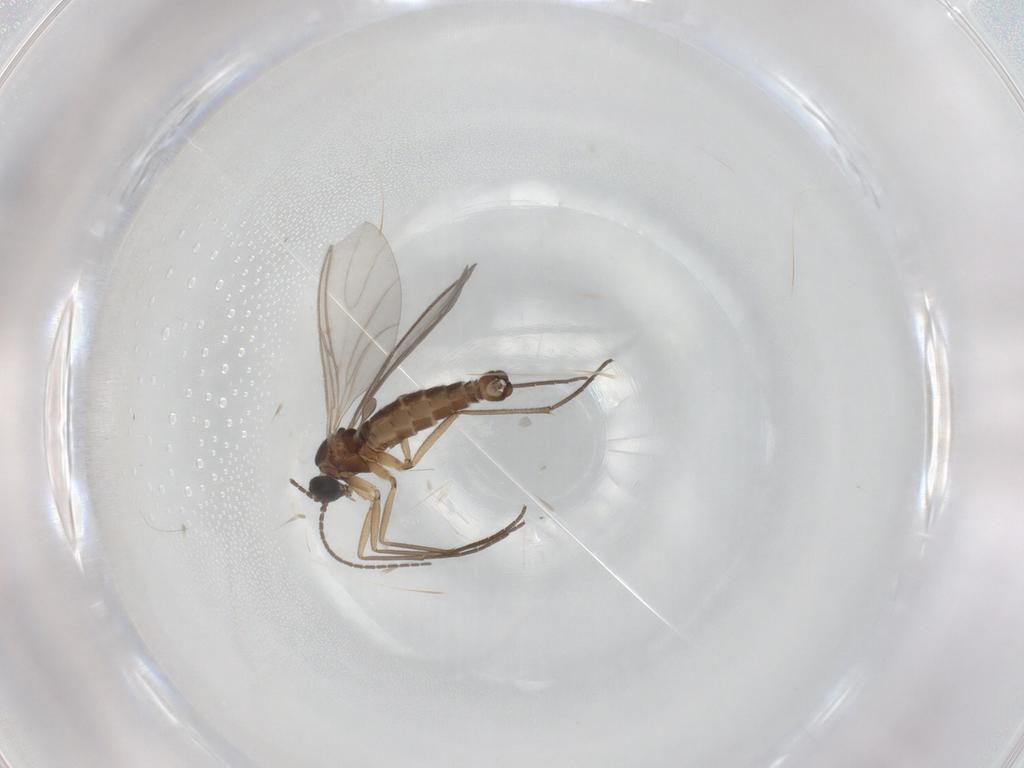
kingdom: Animalia
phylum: Arthropoda
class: Insecta
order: Diptera
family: Sciaridae
